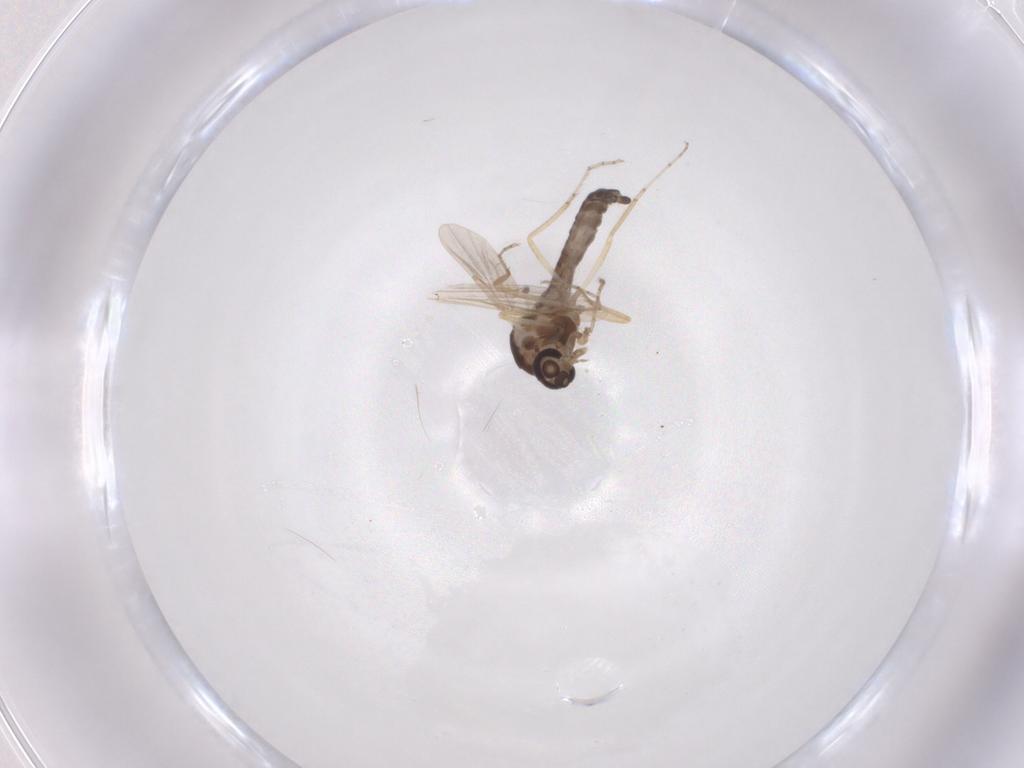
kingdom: Animalia
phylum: Arthropoda
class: Insecta
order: Diptera
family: Ceratopogonidae
